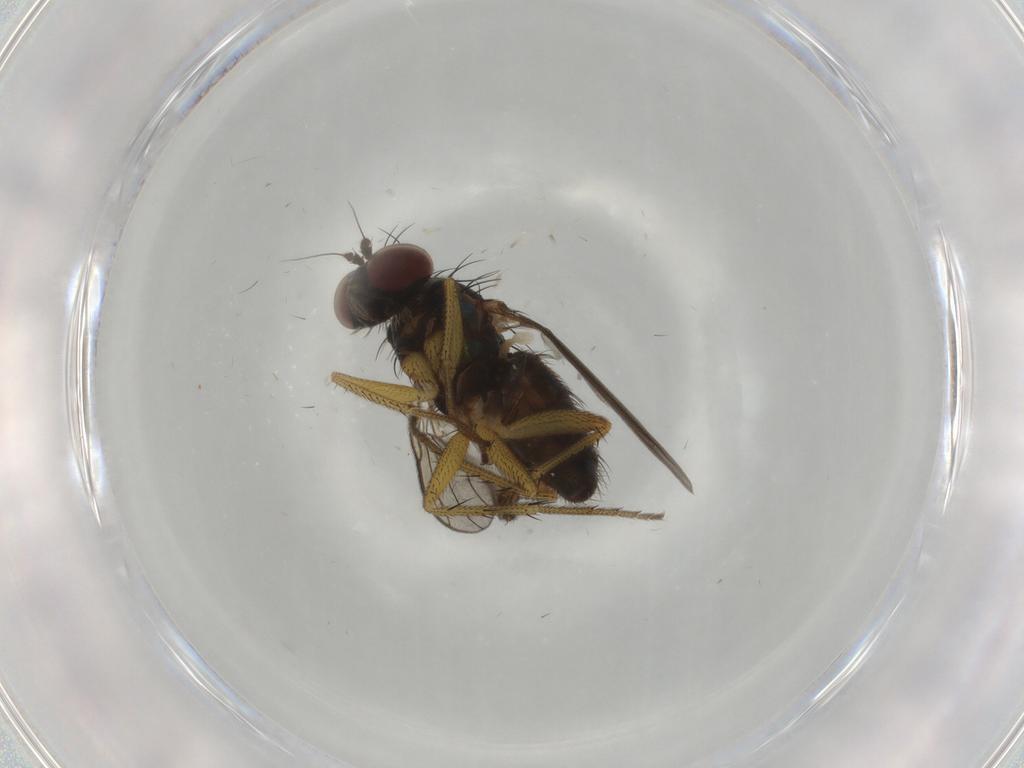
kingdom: Animalia
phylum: Arthropoda
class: Insecta
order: Diptera
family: Dolichopodidae
